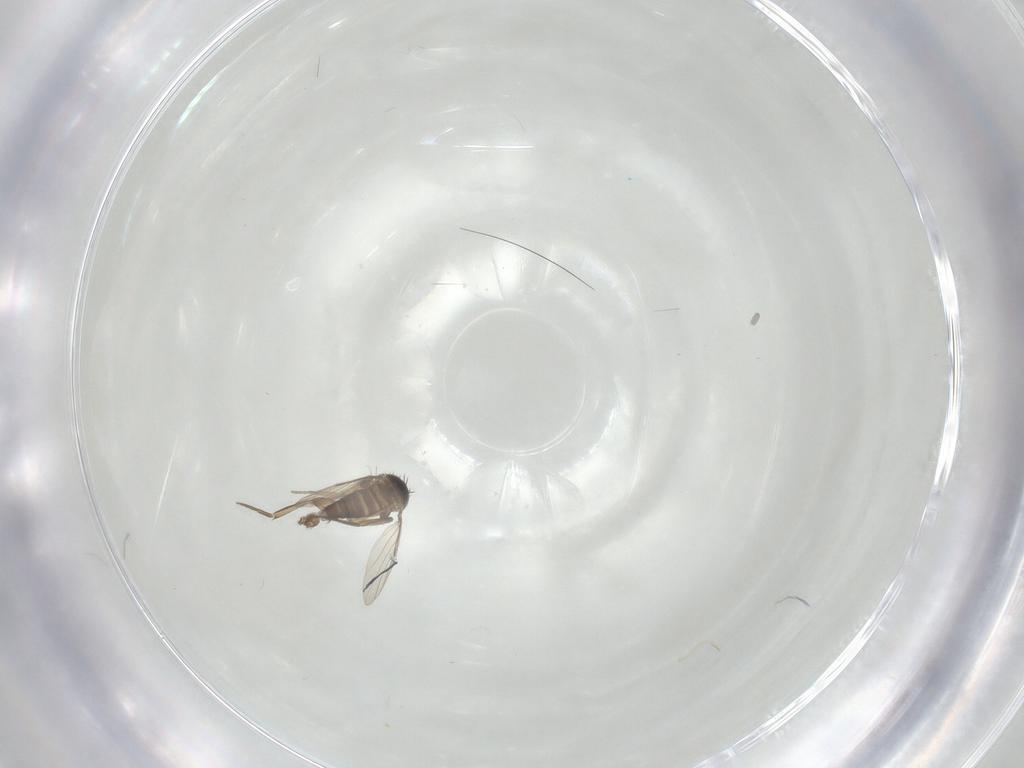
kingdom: Animalia
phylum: Arthropoda
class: Insecta
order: Diptera
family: Phoridae
